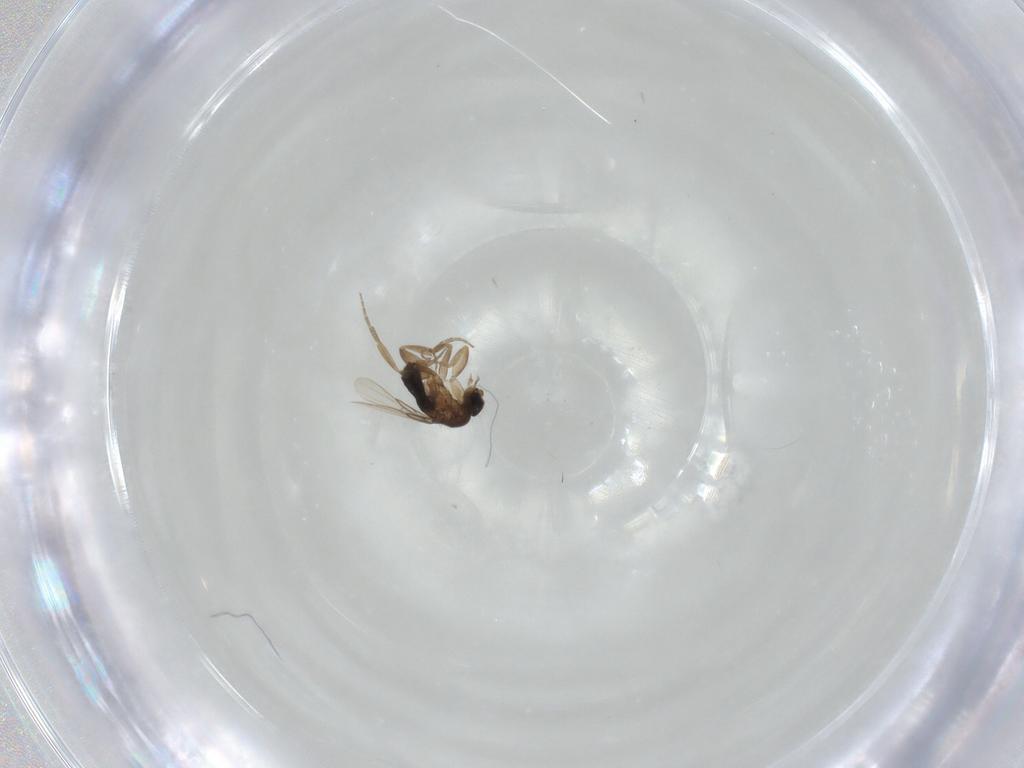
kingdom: Animalia
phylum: Arthropoda
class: Insecta
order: Diptera
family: Phoridae
